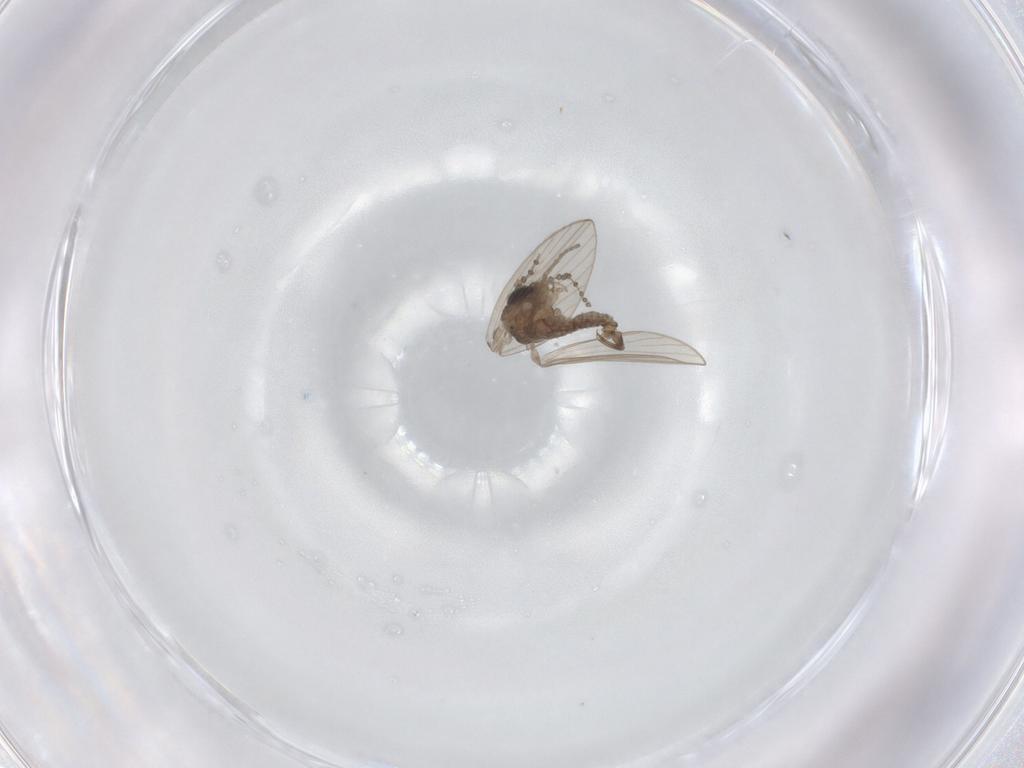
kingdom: Animalia
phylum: Arthropoda
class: Insecta
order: Diptera
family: Psychodidae
